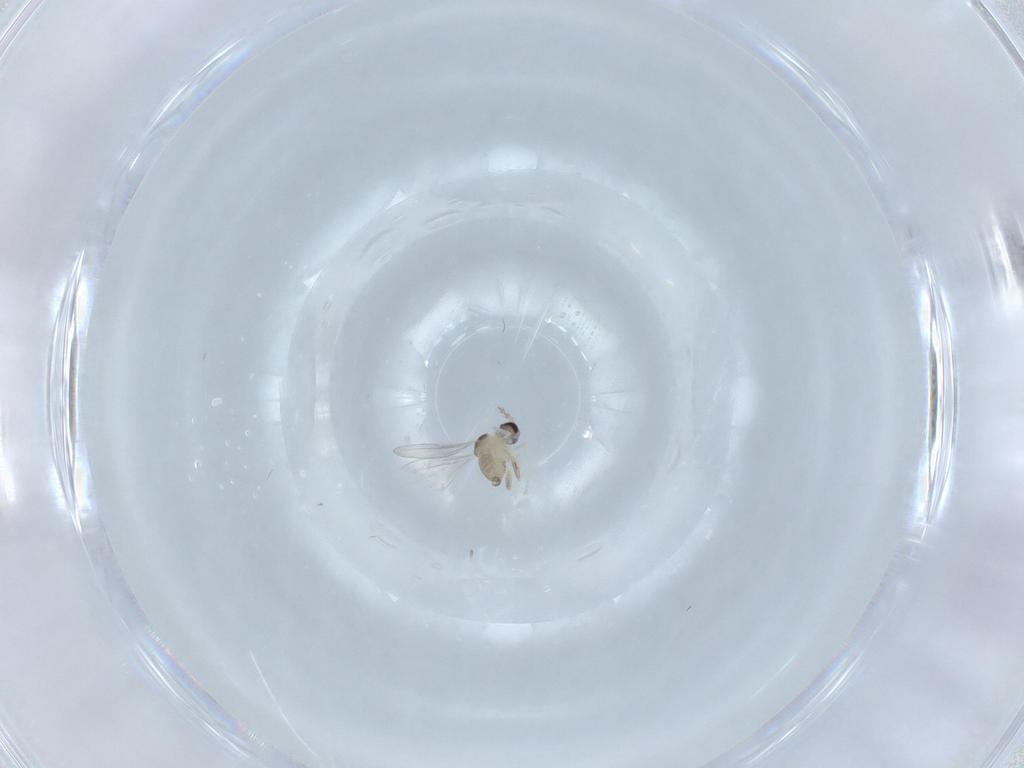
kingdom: Animalia
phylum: Arthropoda
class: Insecta
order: Diptera
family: Cecidomyiidae
